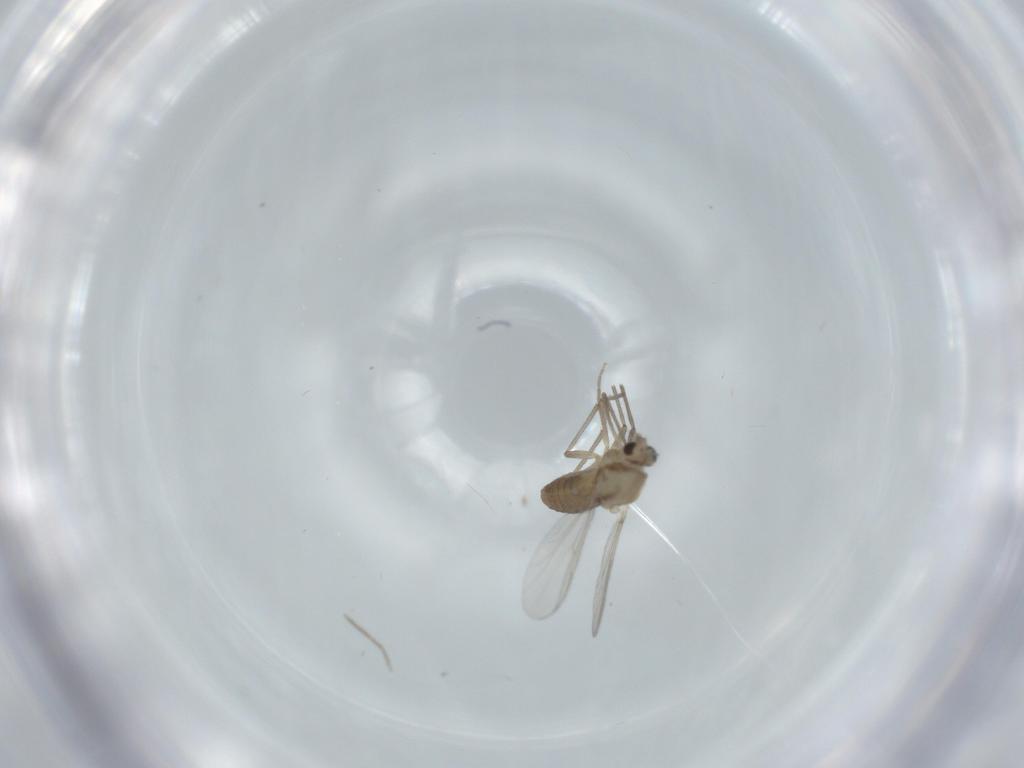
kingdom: Animalia
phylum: Arthropoda
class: Insecta
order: Diptera
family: Chironomidae
